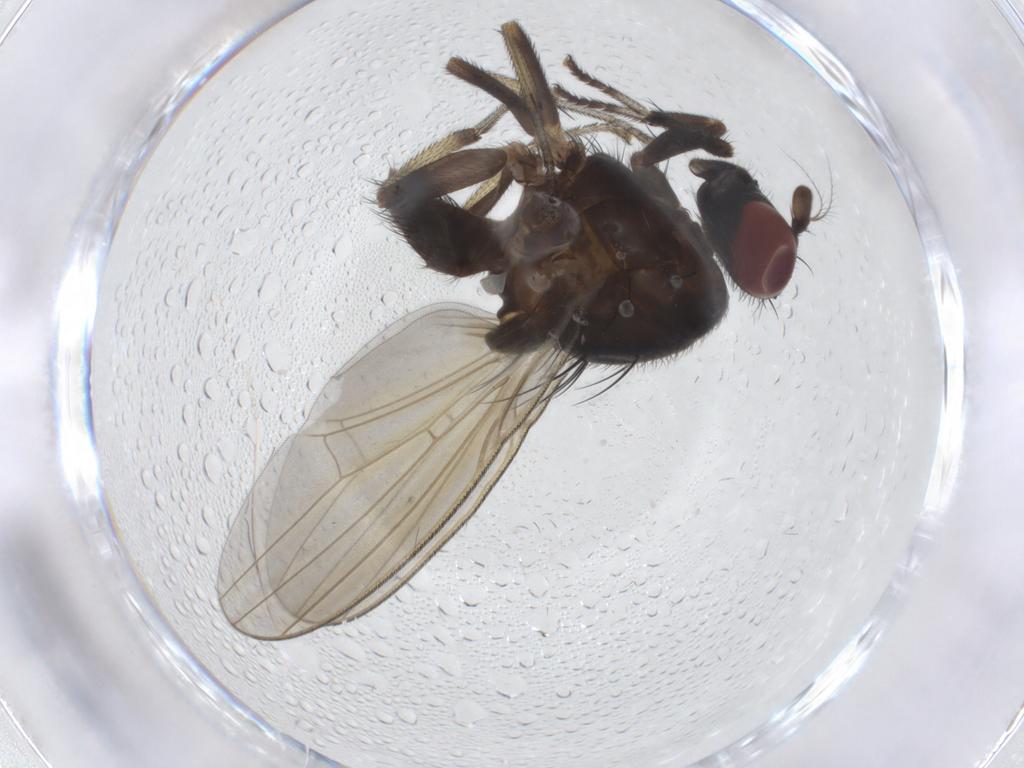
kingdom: Animalia
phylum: Arthropoda
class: Insecta
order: Diptera
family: Limoniidae
